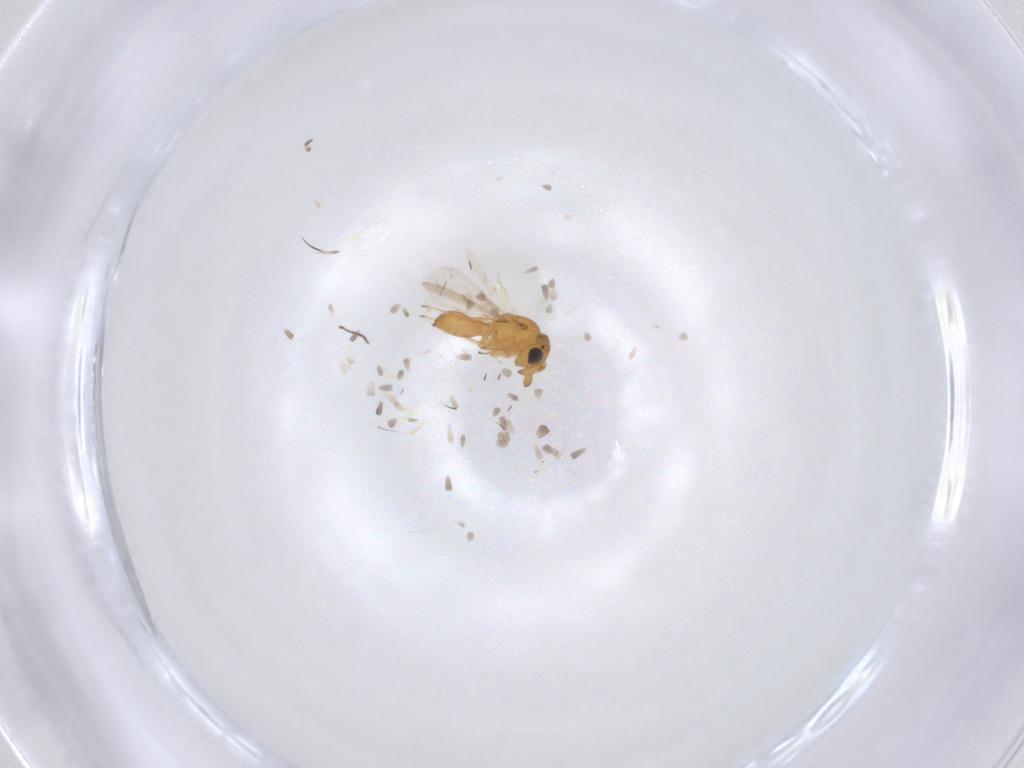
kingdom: Animalia
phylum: Arthropoda
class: Insecta
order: Hymenoptera
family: Scelionidae
